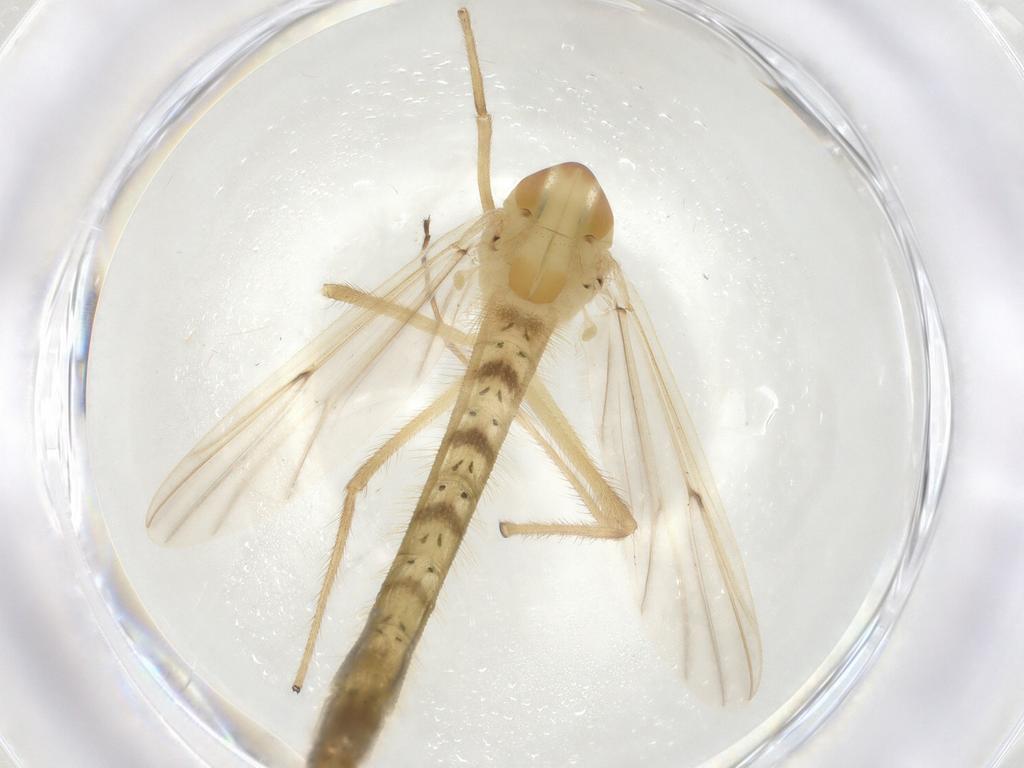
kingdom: Animalia
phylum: Arthropoda
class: Insecta
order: Diptera
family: Chironomidae
